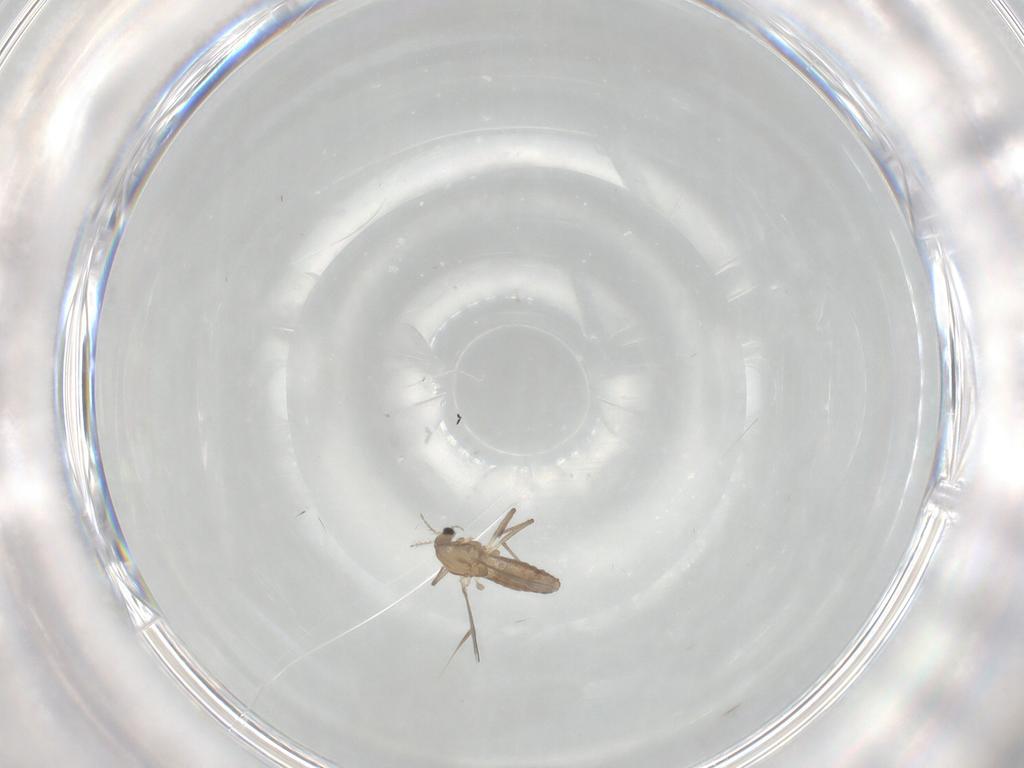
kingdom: Animalia
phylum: Arthropoda
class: Insecta
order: Diptera
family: Chironomidae
